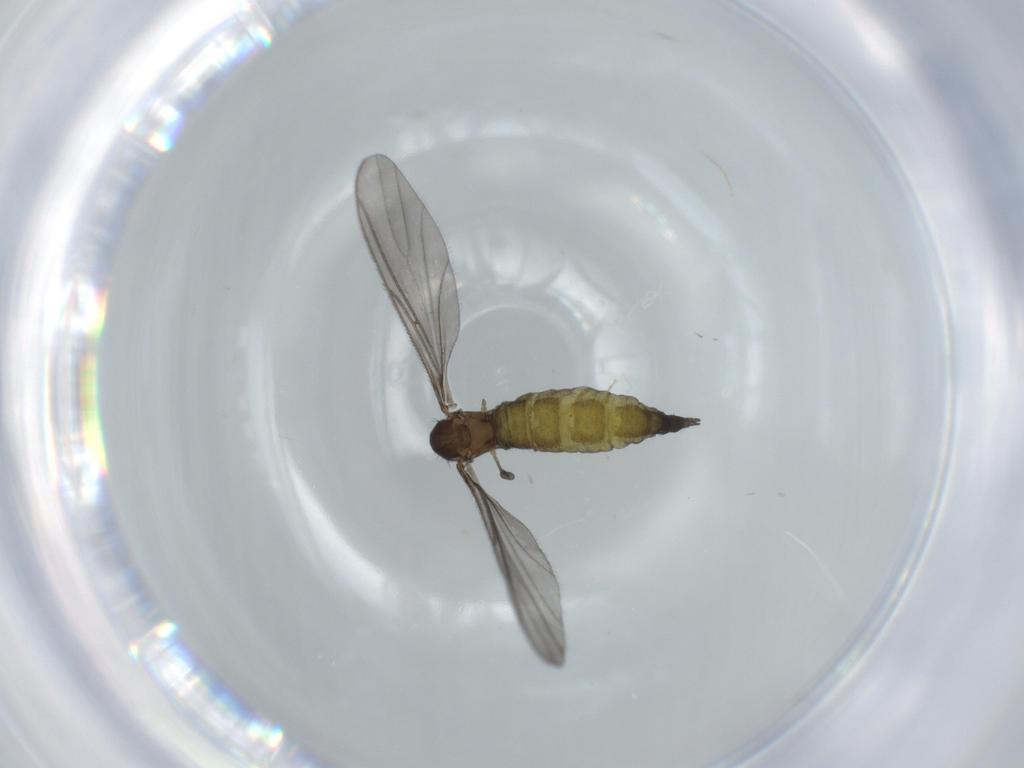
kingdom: Animalia
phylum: Arthropoda
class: Insecta
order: Diptera
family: Sciaridae
